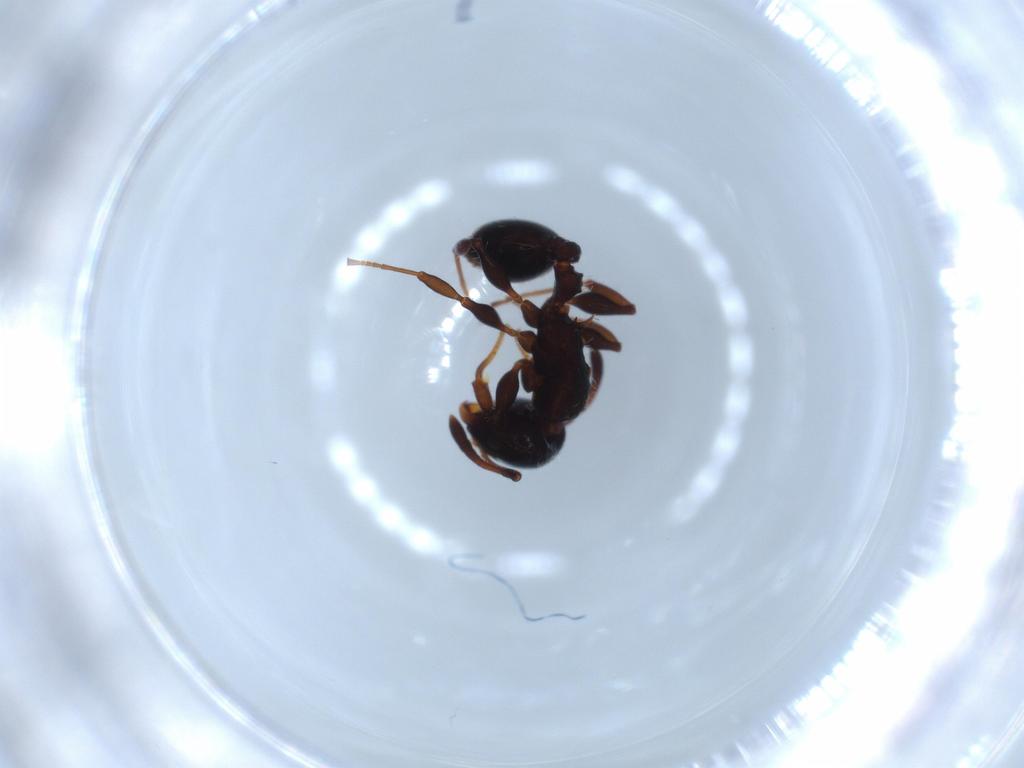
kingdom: Animalia
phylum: Arthropoda
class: Insecta
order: Hymenoptera
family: Formicidae
